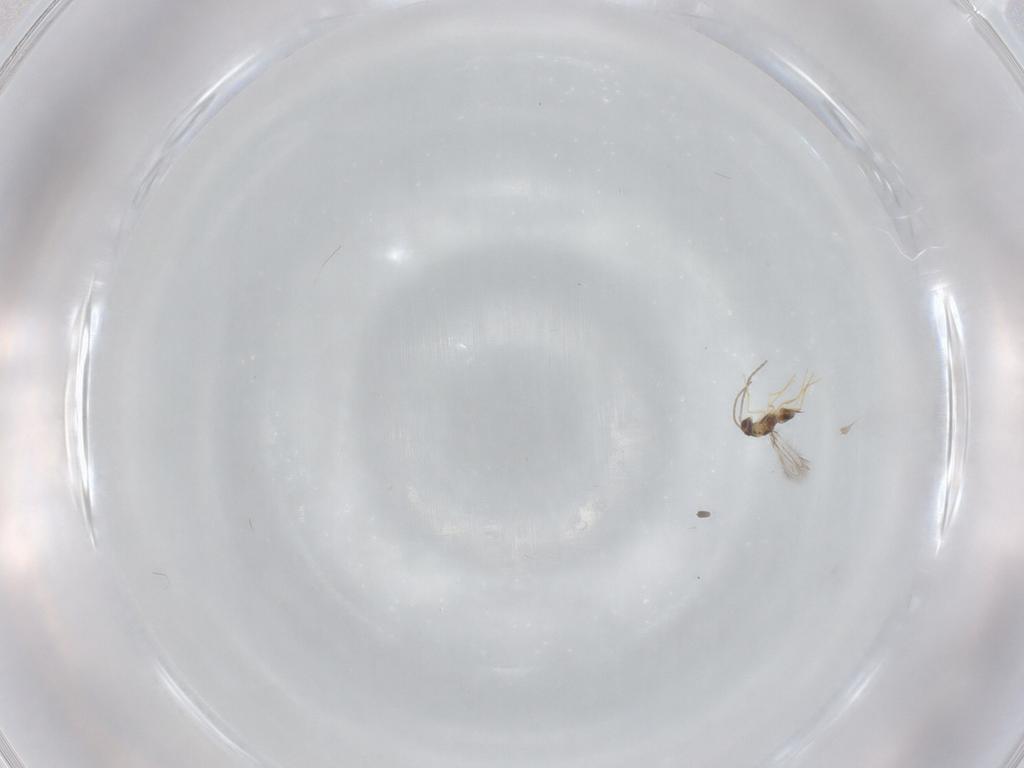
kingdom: Animalia
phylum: Arthropoda
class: Insecta
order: Hymenoptera
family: Mymaridae
